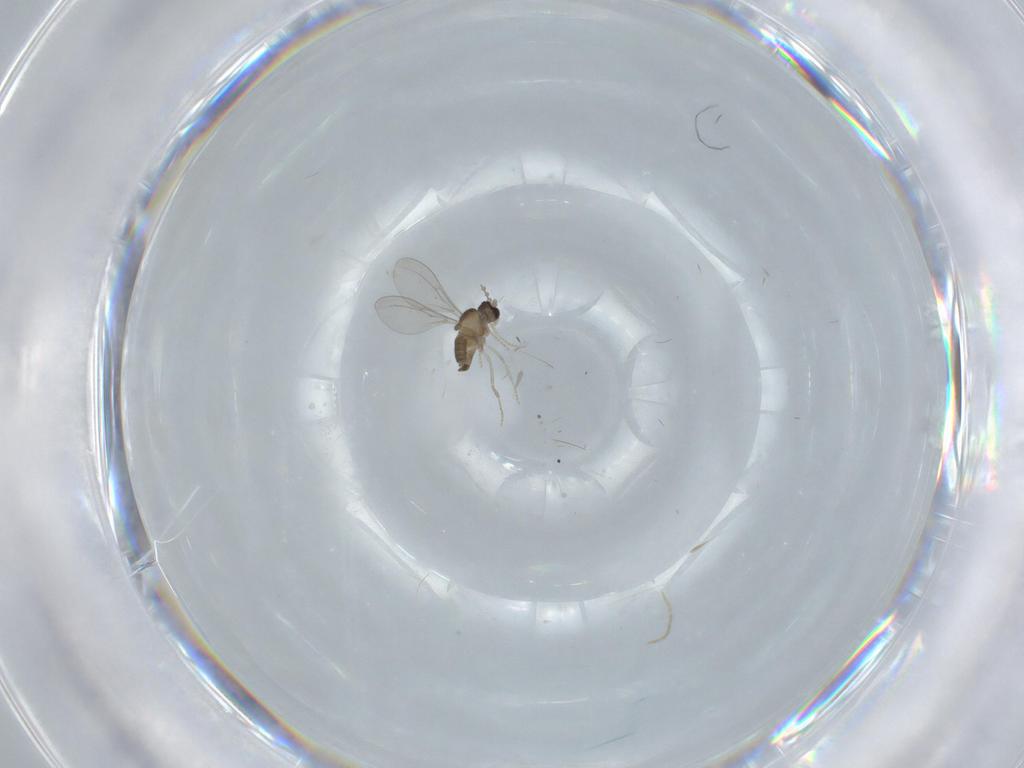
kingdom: Animalia
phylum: Arthropoda
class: Insecta
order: Diptera
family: Cecidomyiidae
